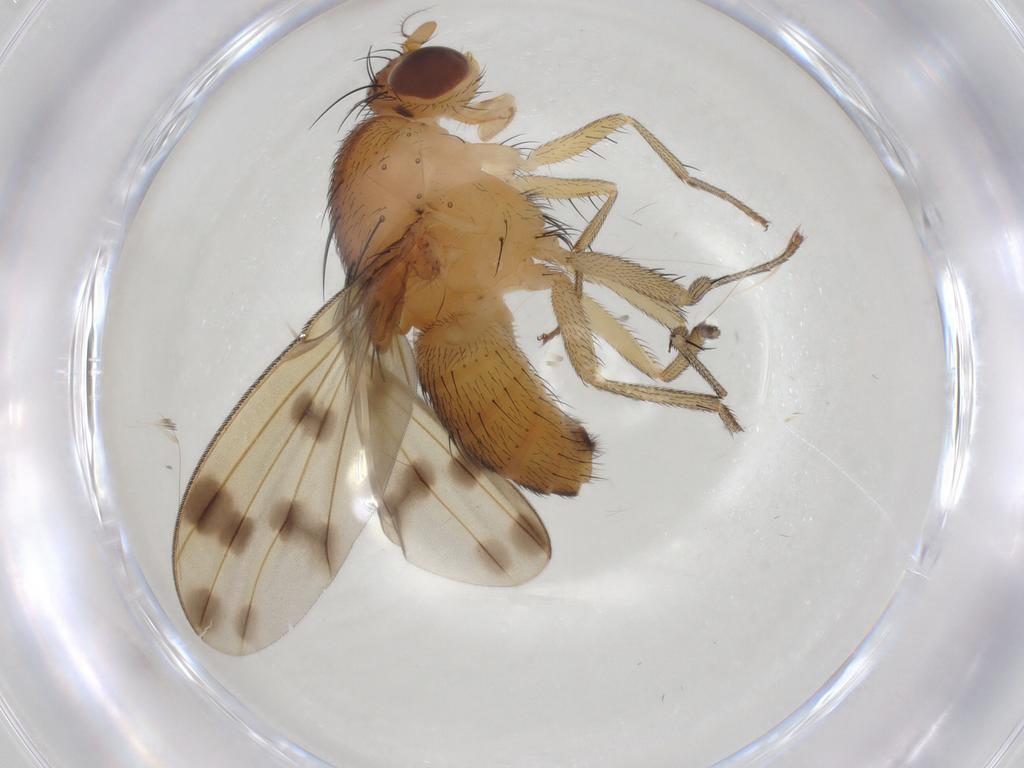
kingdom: Animalia
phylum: Arthropoda
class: Insecta
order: Diptera
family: Lauxaniidae
